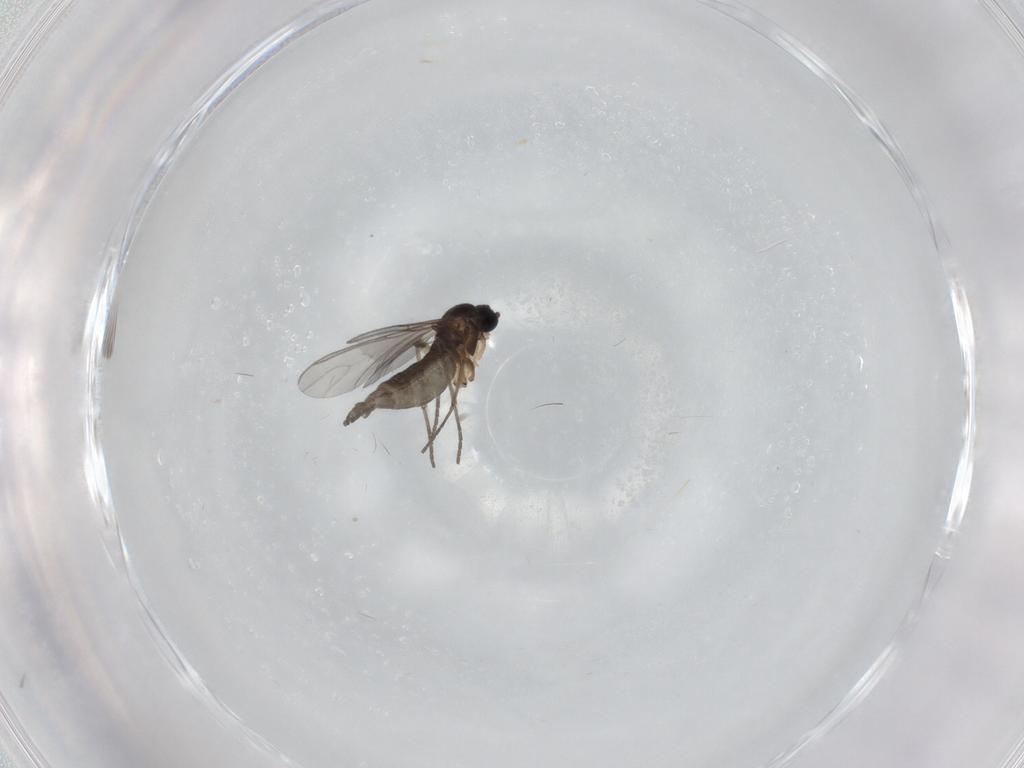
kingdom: Animalia
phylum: Arthropoda
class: Insecta
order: Diptera
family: Sciaridae
